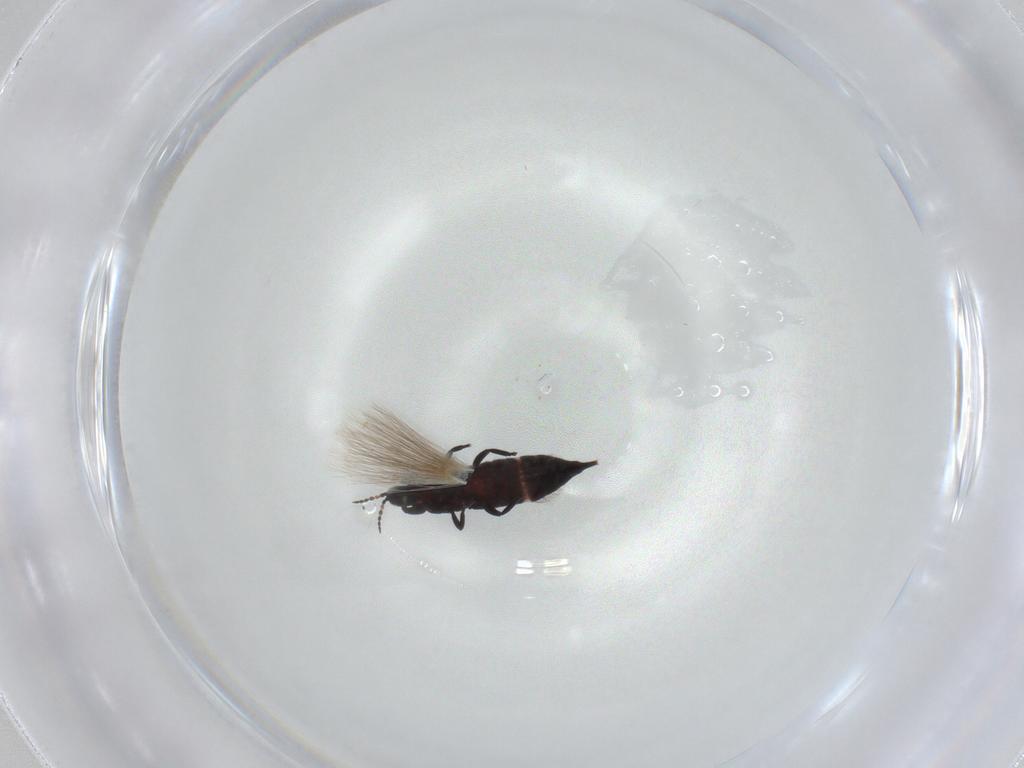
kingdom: Animalia
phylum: Arthropoda
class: Insecta
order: Thysanoptera
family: Phlaeothripidae
